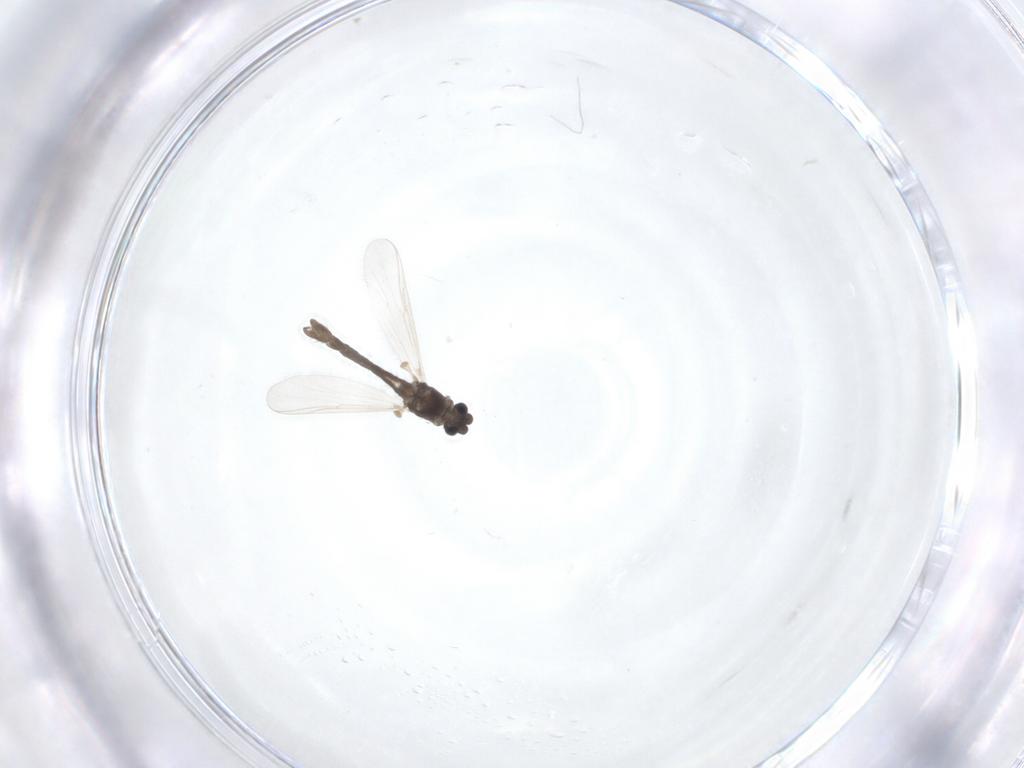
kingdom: Animalia
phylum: Arthropoda
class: Insecta
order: Diptera
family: Chironomidae
